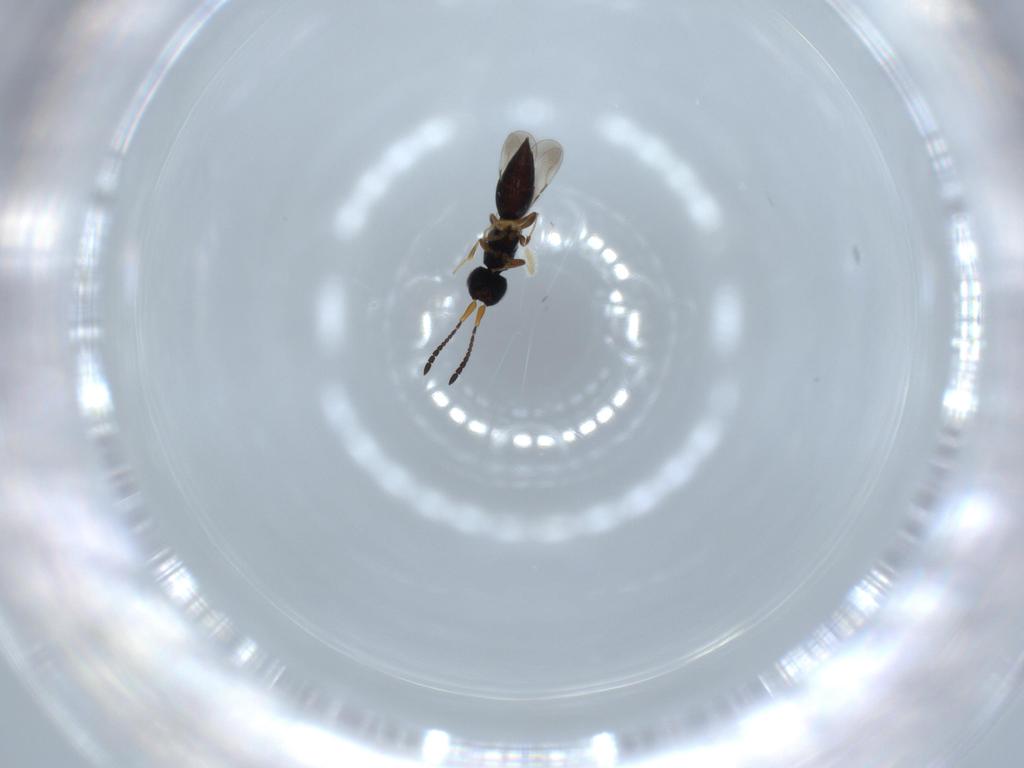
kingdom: Animalia
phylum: Arthropoda
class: Insecta
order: Hymenoptera
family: Ceraphronidae
